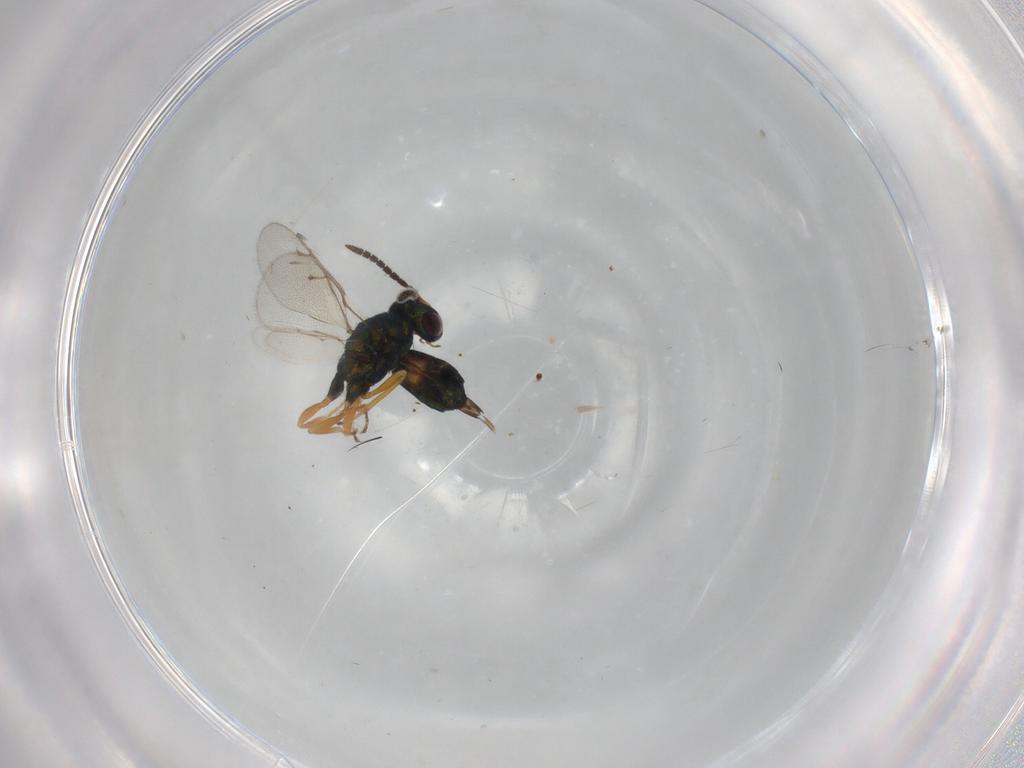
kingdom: Animalia
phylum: Arthropoda
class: Insecta
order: Hymenoptera
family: Pteromalidae
